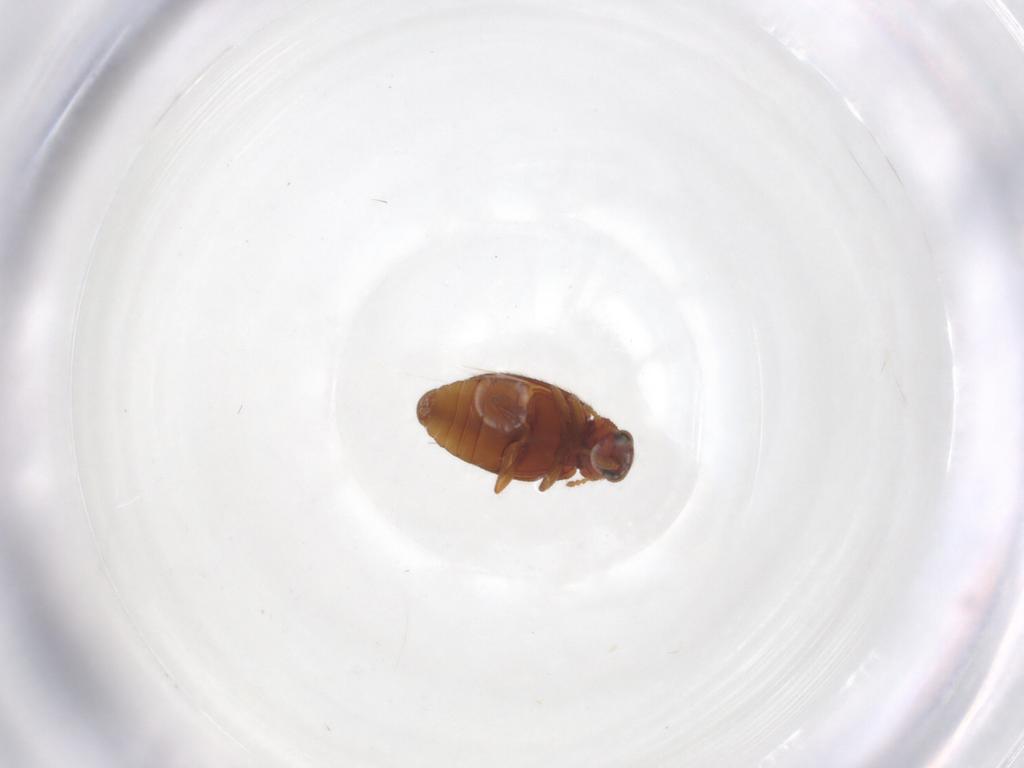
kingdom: Animalia
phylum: Arthropoda
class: Insecta
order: Coleoptera
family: Latridiidae
